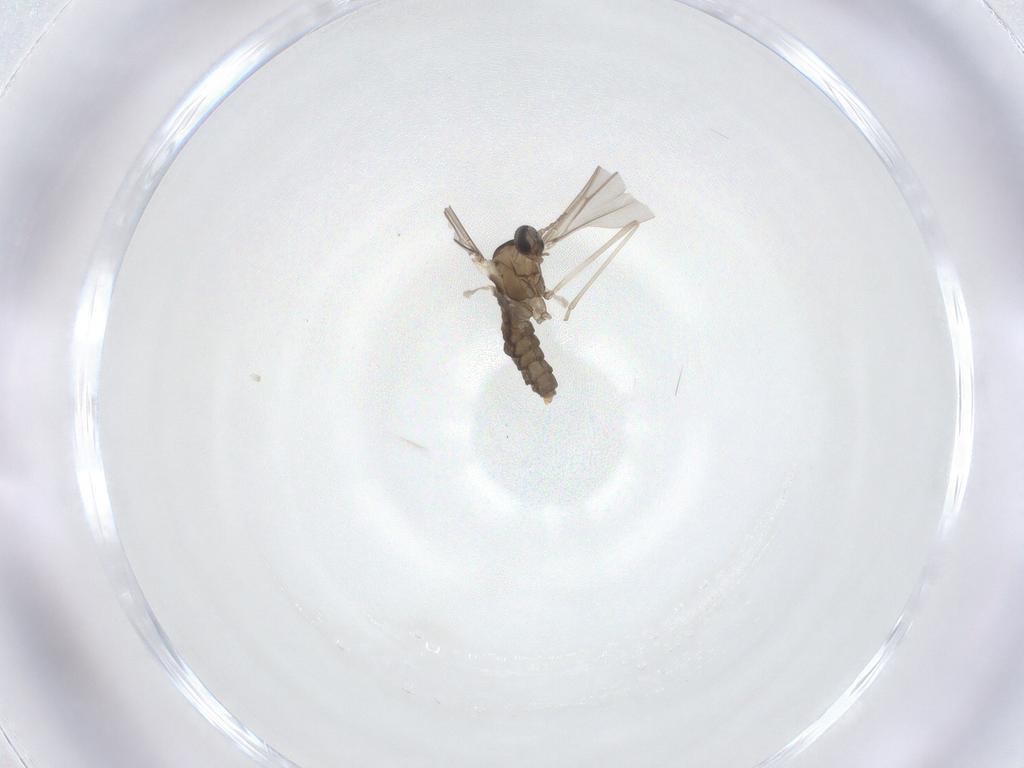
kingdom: Animalia
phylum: Arthropoda
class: Insecta
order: Diptera
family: Cecidomyiidae
